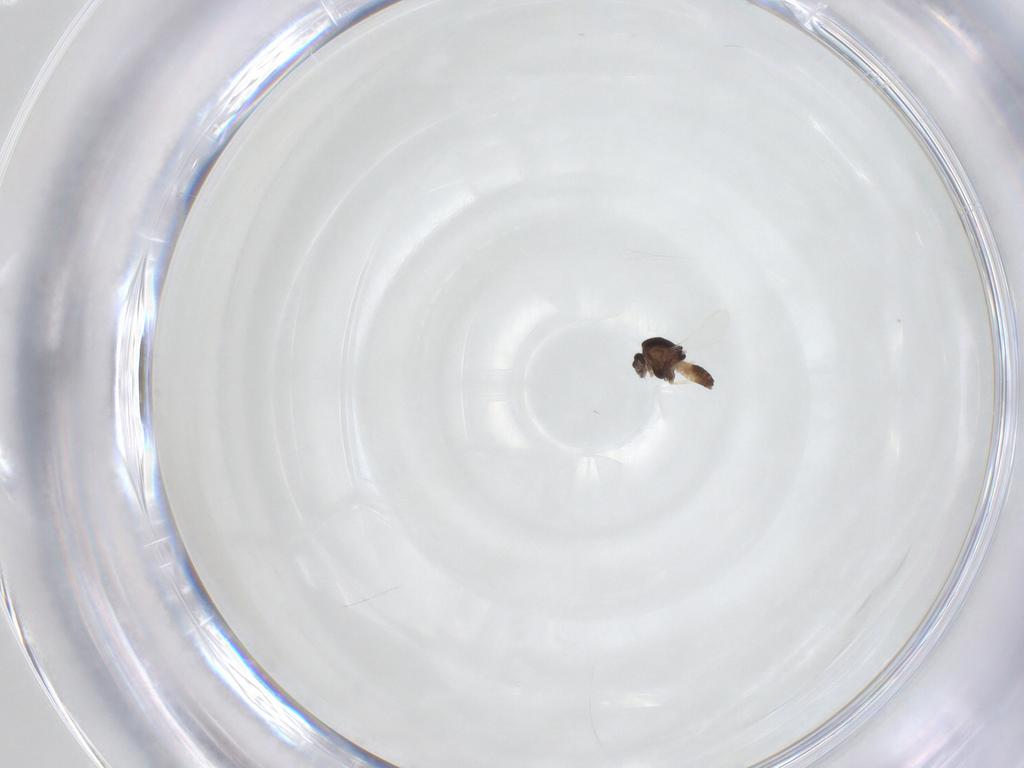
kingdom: Animalia
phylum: Arthropoda
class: Insecta
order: Diptera
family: Chironomidae
